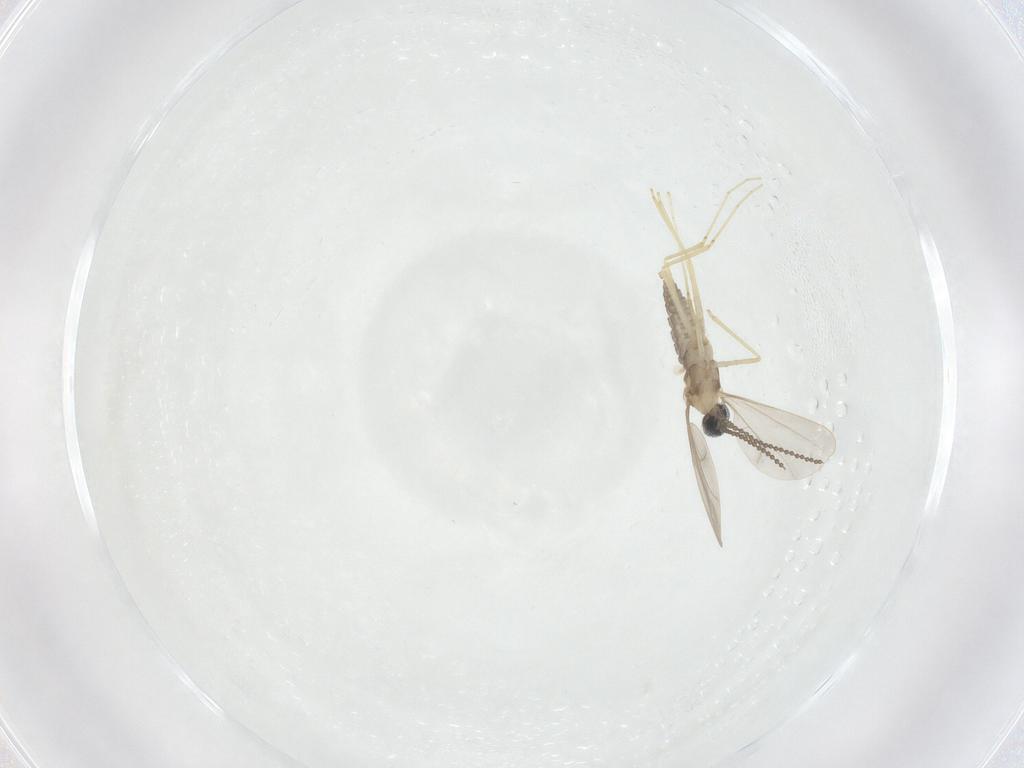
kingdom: Animalia
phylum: Arthropoda
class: Insecta
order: Diptera
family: Cecidomyiidae
